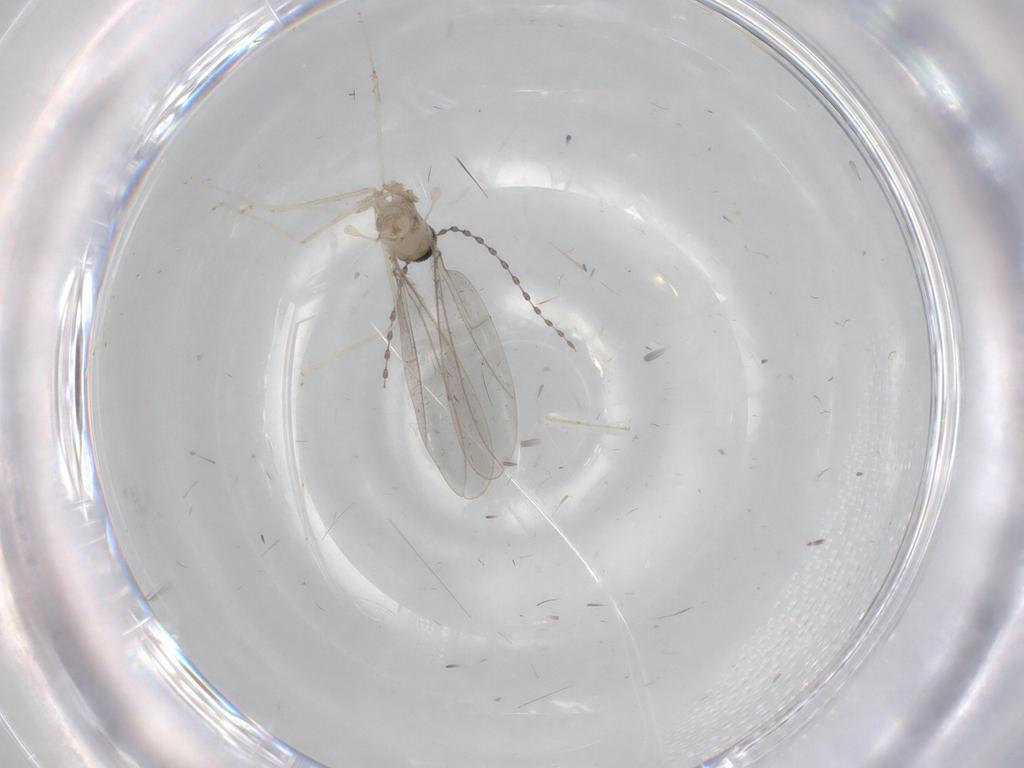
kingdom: Animalia
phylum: Arthropoda
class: Insecta
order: Diptera
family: Cecidomyiidae
